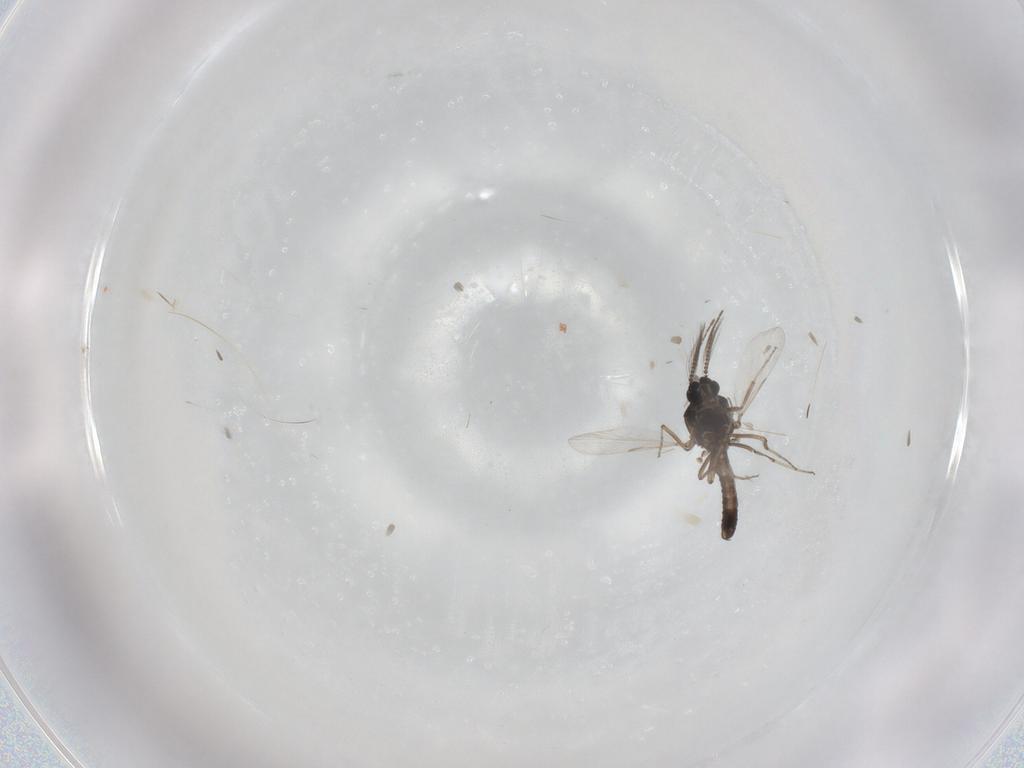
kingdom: Animalia
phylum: Arthropoda
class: Insecta
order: Diptera
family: Ceratopogonidae
